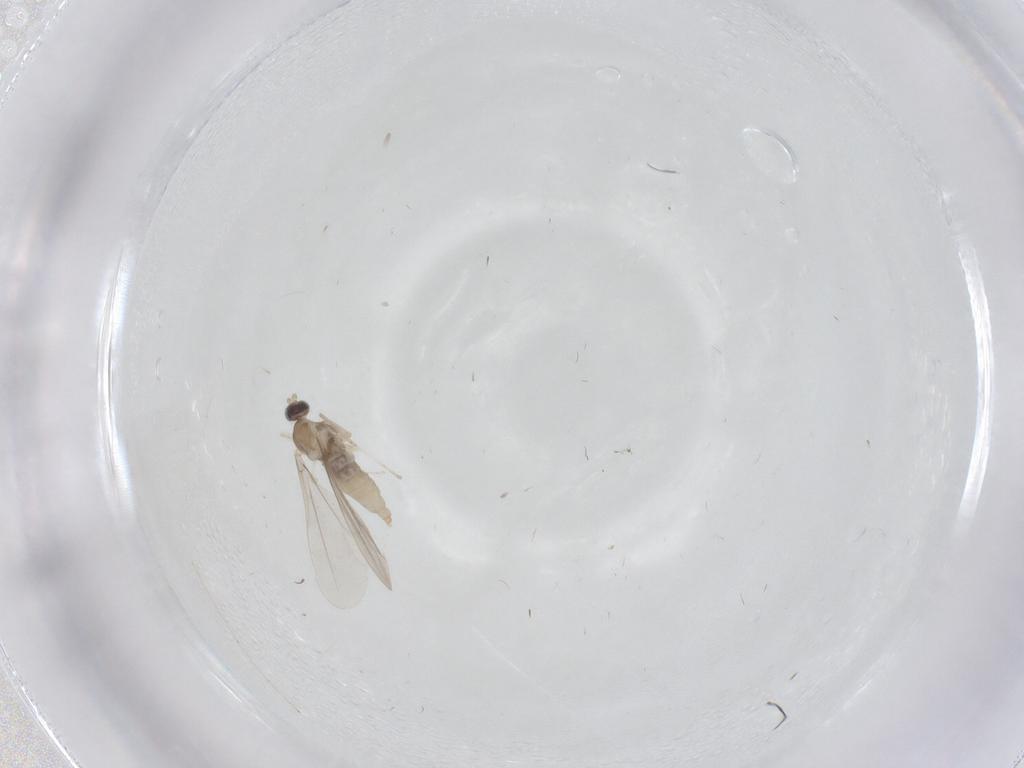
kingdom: Animalia
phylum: Arthropoda
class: Insecta
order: Diptera
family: Cecidomyiidae
